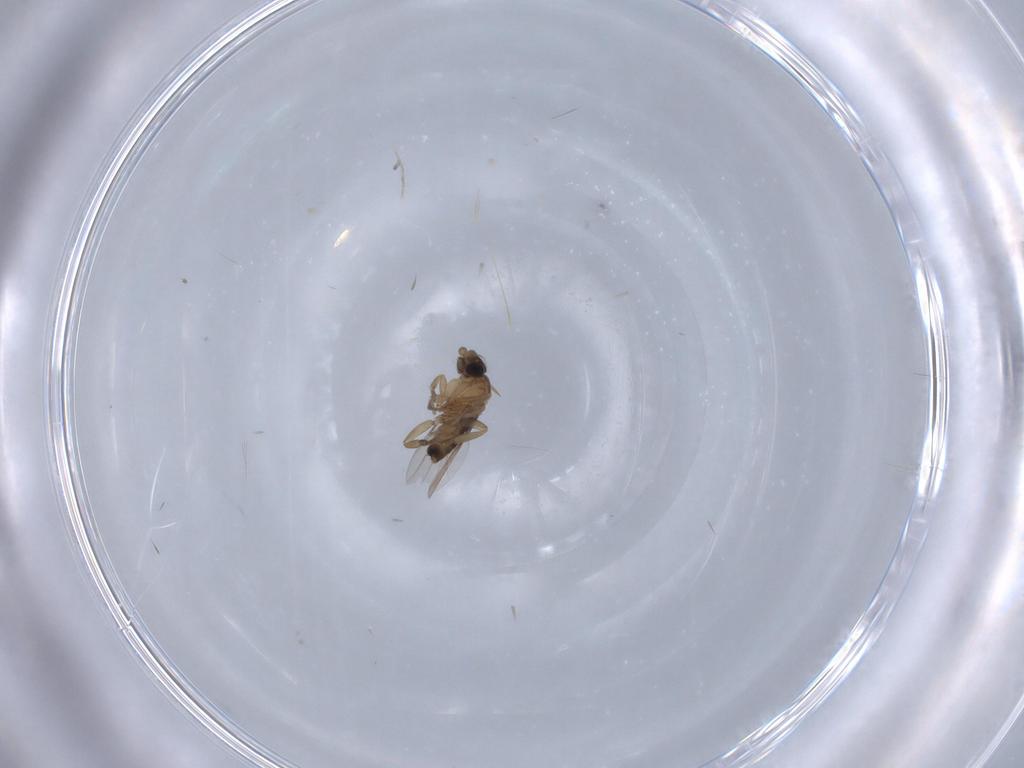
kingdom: Animalia
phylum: Arthropoda
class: Insecta
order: Diptera
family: Phoridae
